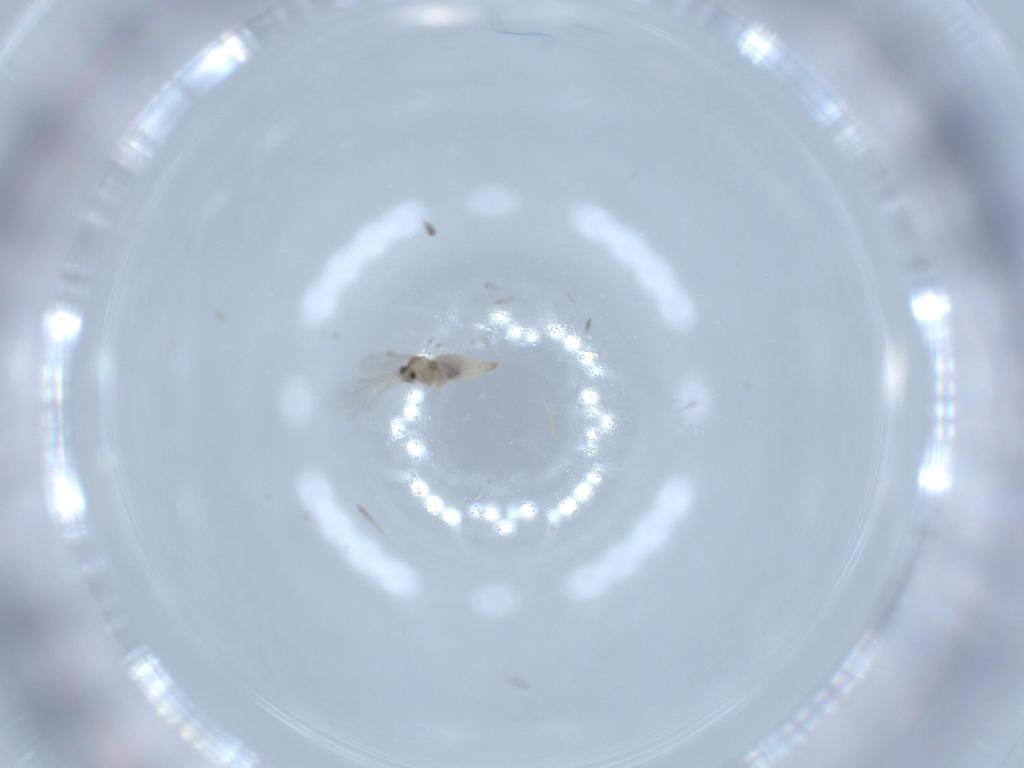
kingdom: Animalia
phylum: Arthropoda
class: Insecta
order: Diptera
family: Cecidomyiidae
